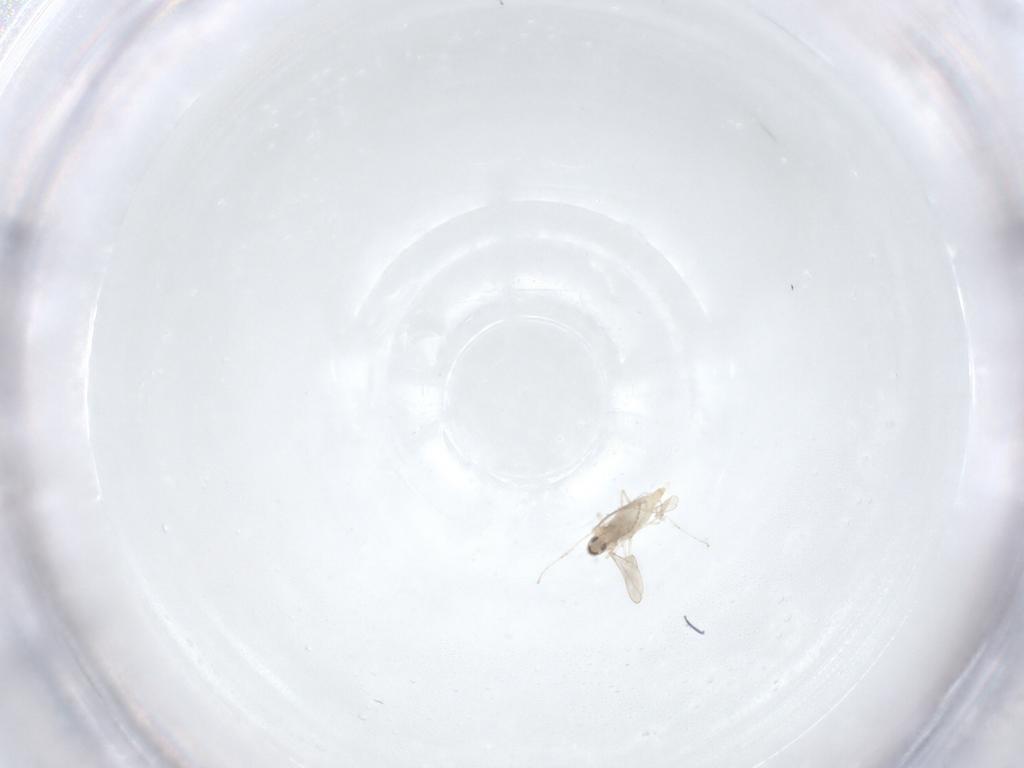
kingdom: Animalia
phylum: Arthropoda
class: Insecta
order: Diptera
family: Cecidomyiidae
